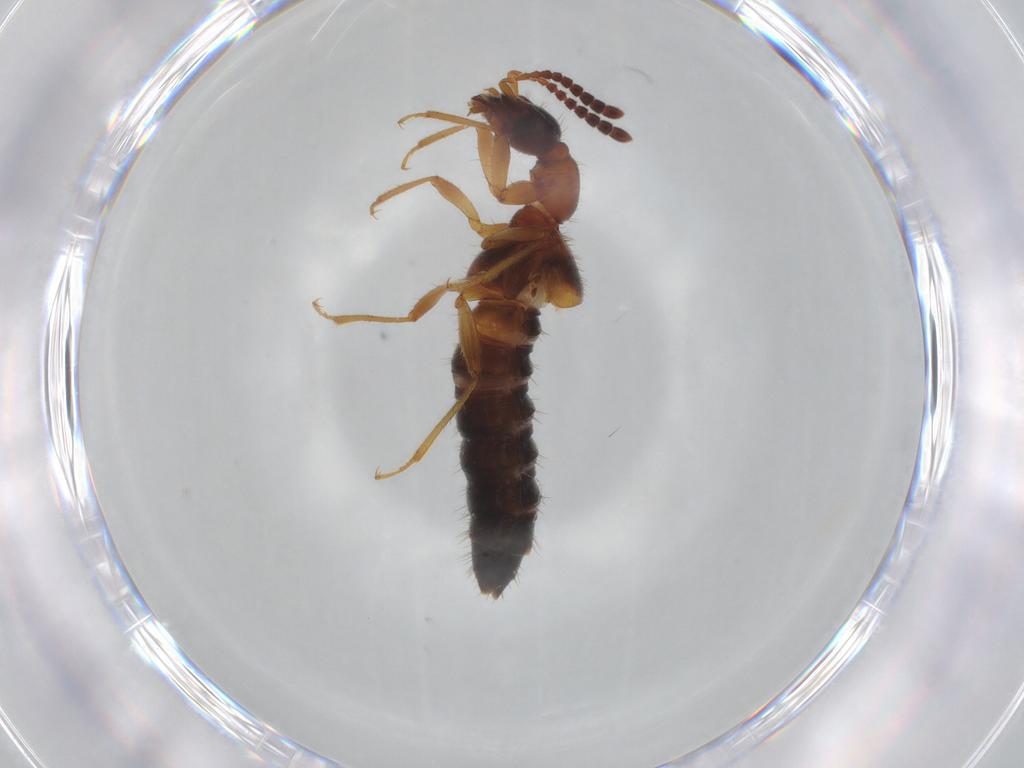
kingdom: Animalia
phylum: Arthropoda
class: Insecta
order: Coleoptera
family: Staphylinidae
